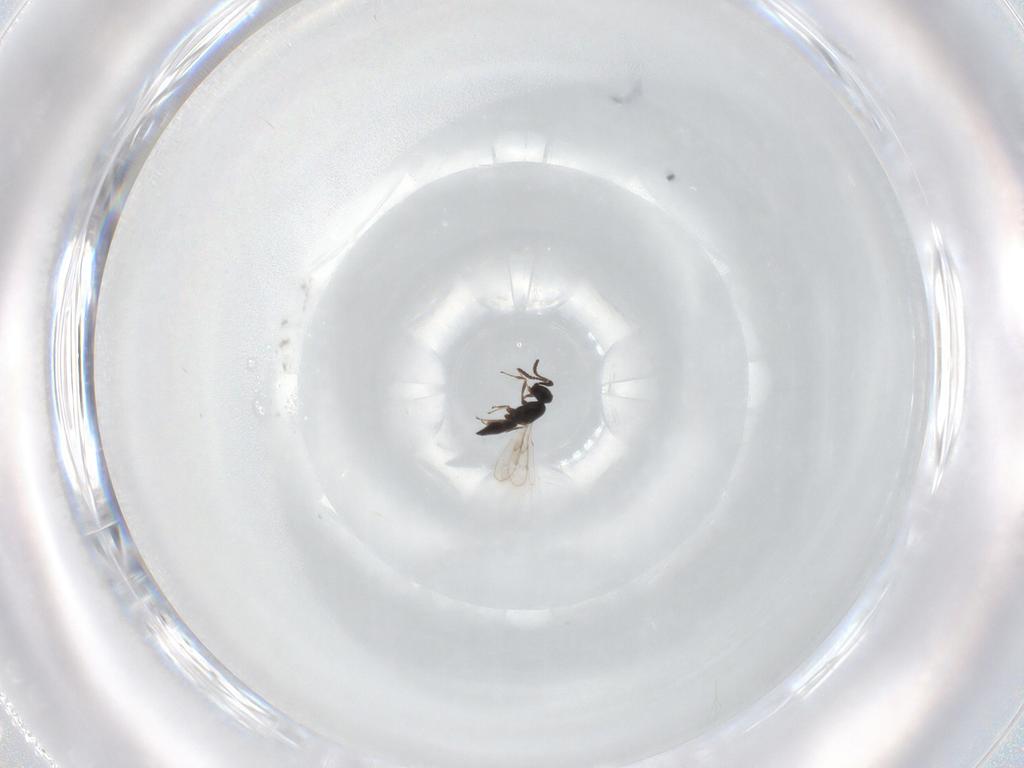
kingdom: Animalia
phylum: Arthropoda
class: Insecta
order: Hymenoptera
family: Scelionidae
